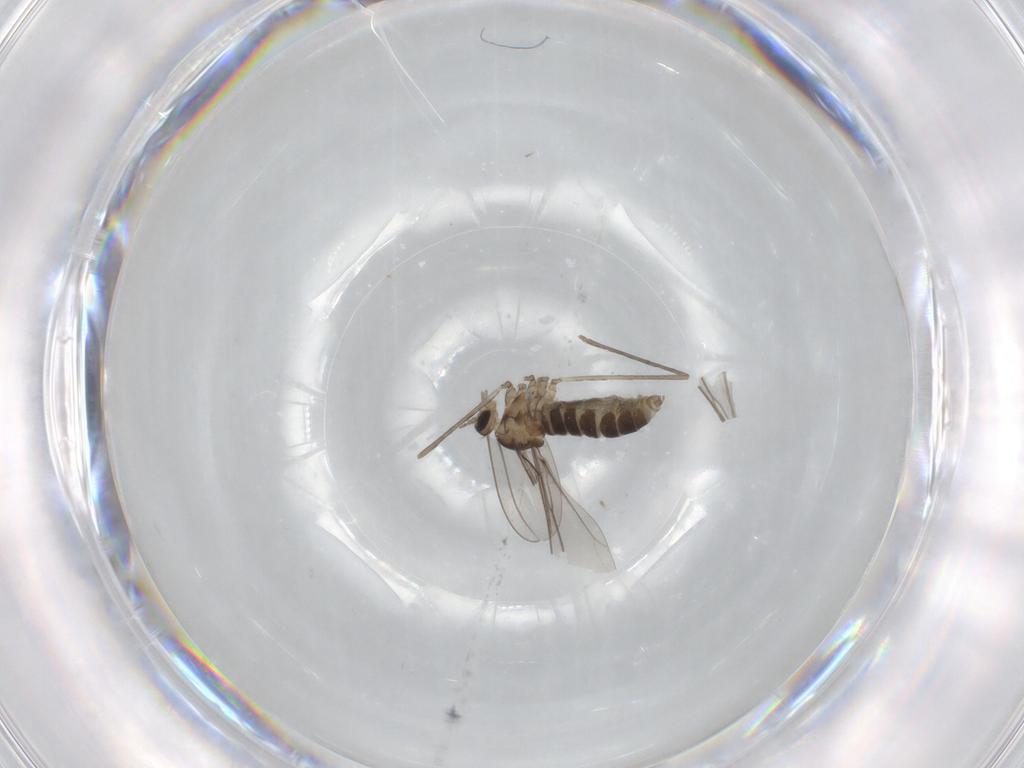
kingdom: Animalia
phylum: Arthropoda
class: Insecta
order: Diptera
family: Cecidomyiidae
